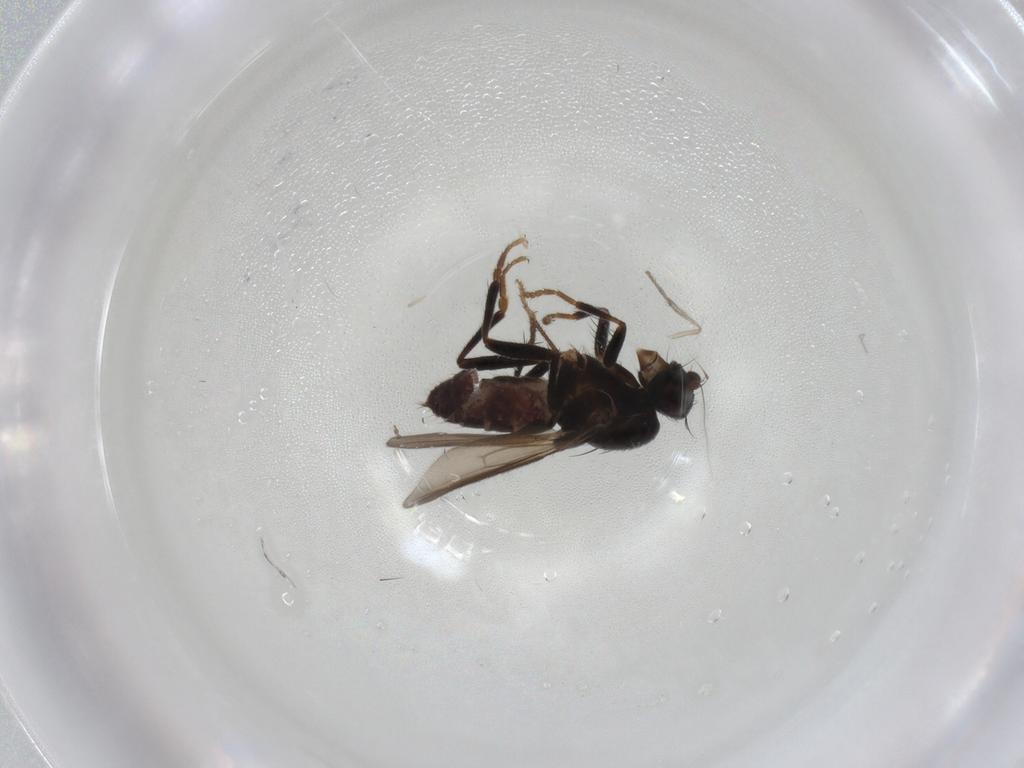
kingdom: Animalia
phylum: Arthropoda
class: Insecta
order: Diptera
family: Sphaeroceridae
